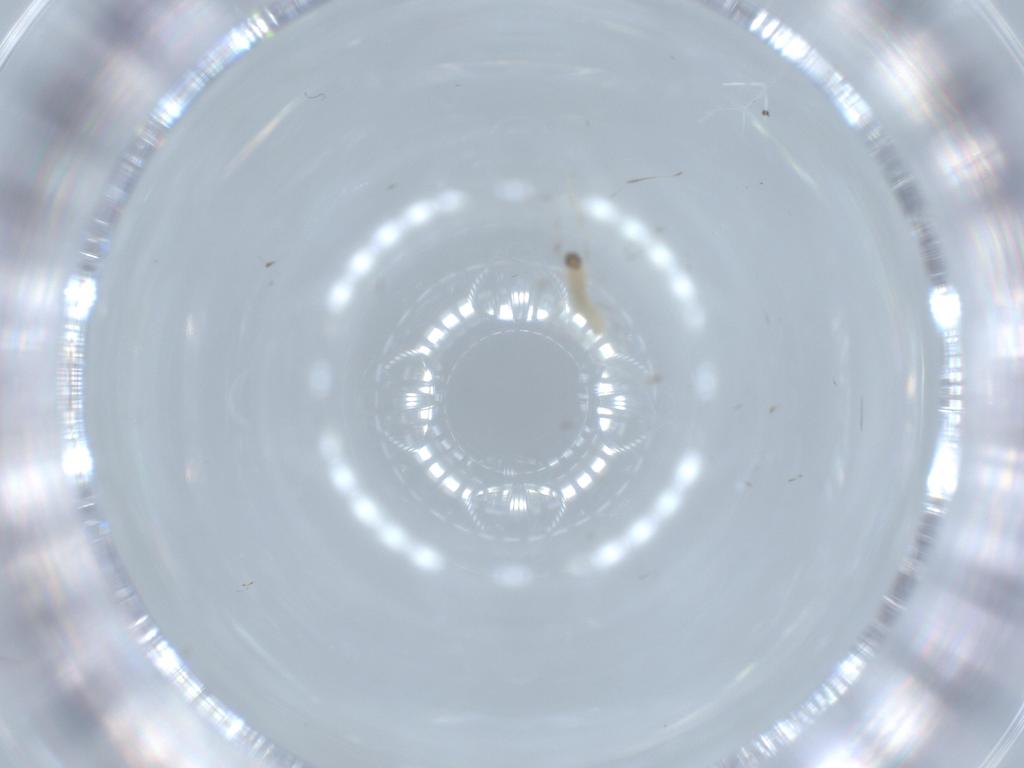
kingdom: Animalia
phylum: Arthropoda
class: Insecta
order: Diptera
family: Cecidomyiidae
